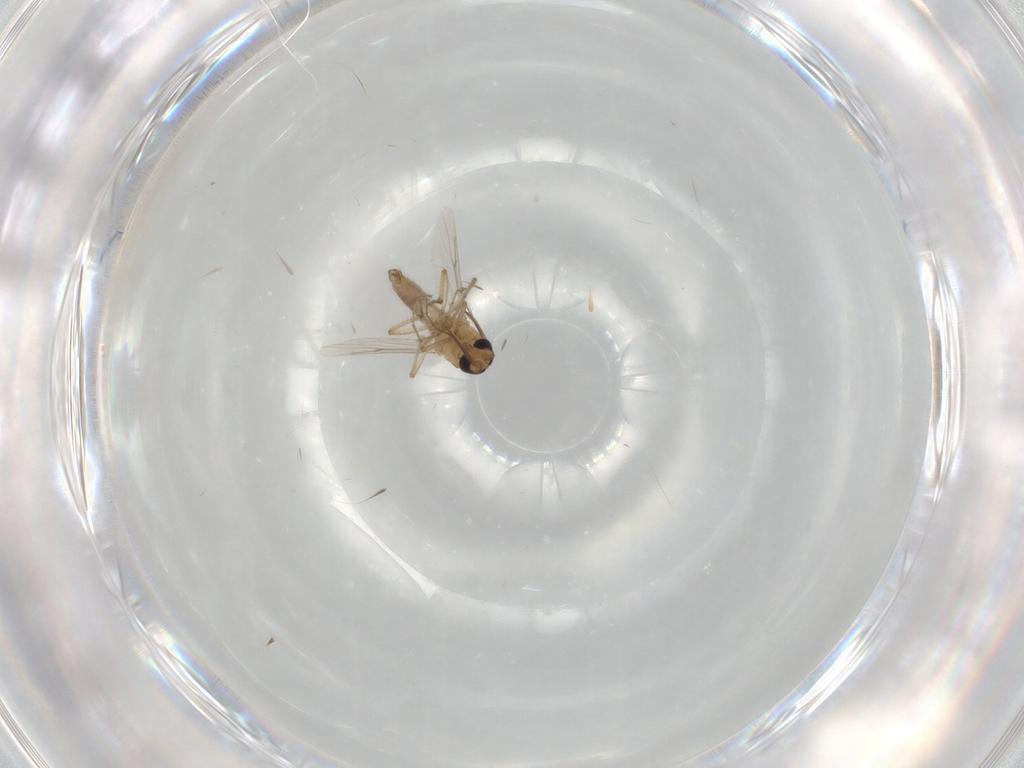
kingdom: Animalia
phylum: Arthropoda
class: Insecta
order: Diptera
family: Ceratopogonidae
